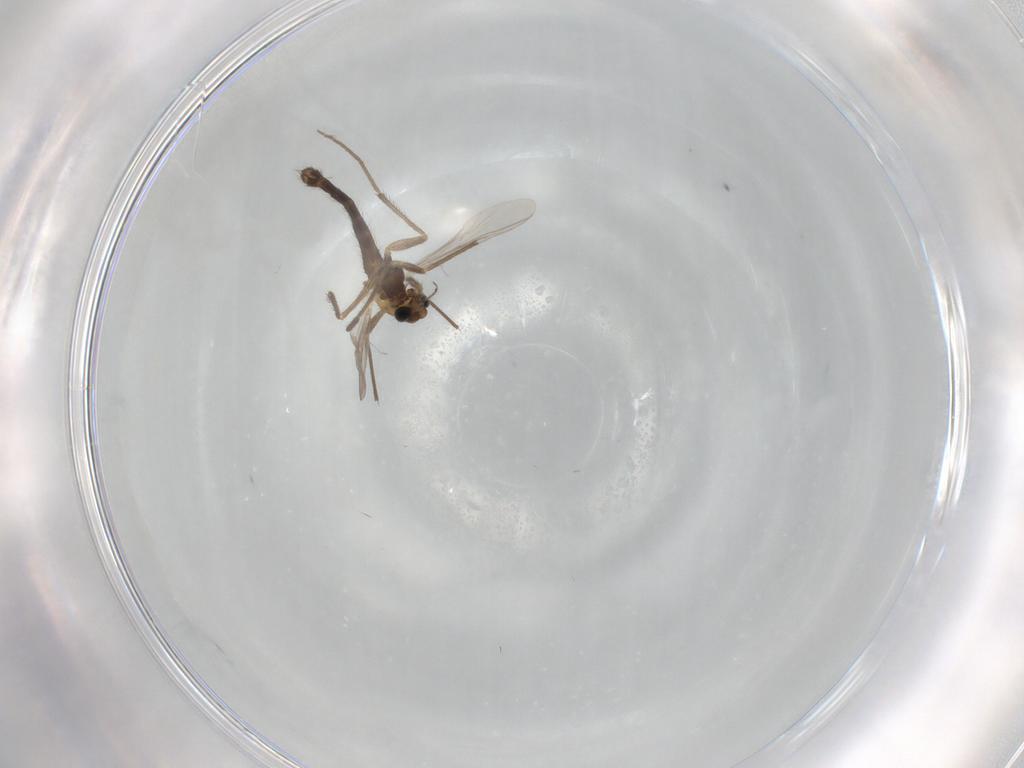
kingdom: Animalia
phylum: Arthropoda
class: Insecta
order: Diptera
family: Chironomidae
